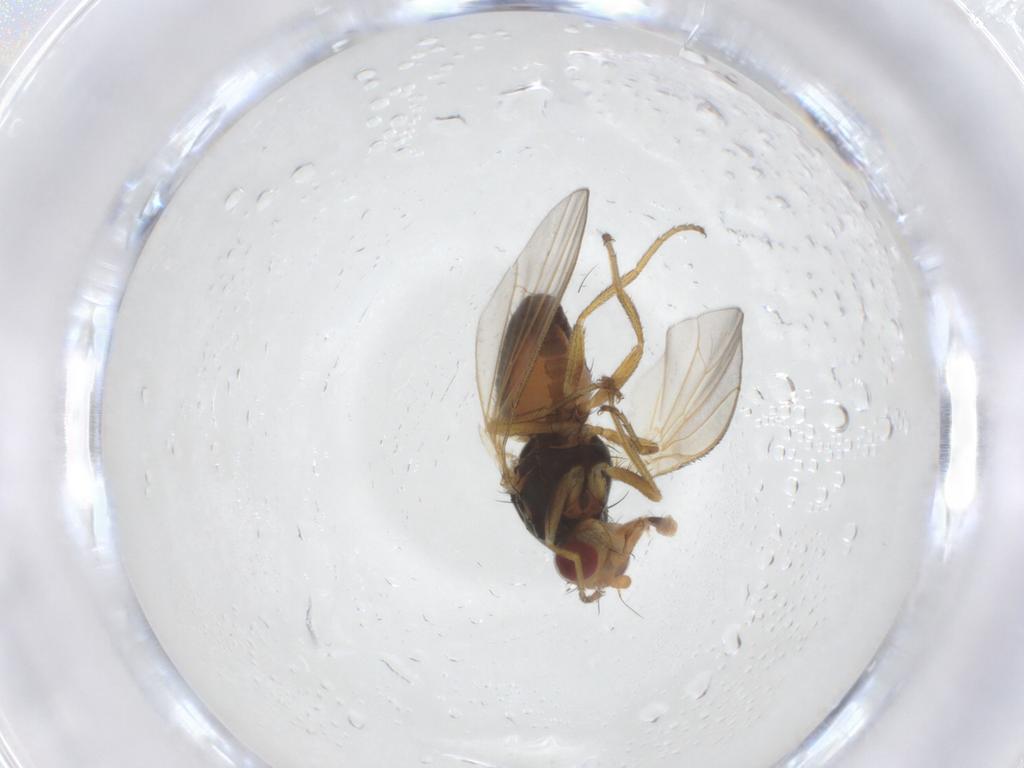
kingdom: Animalia
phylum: Arthropoda
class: Insecta
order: Diptera
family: Heleomyzidae
